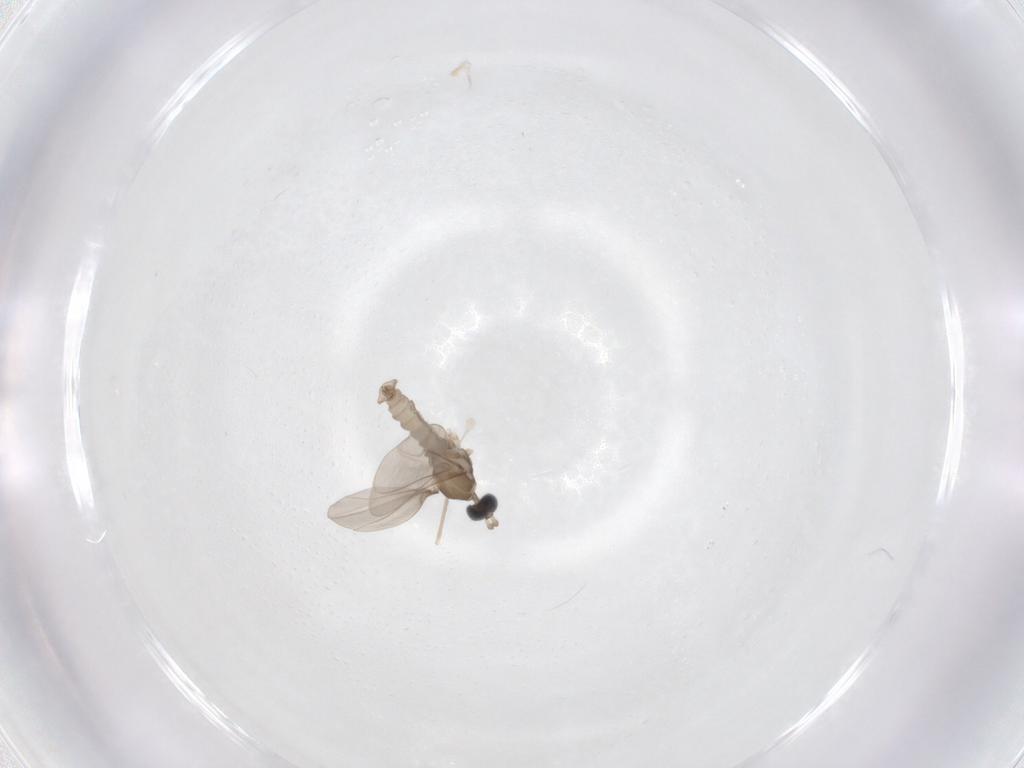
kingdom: Animalia
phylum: Arthropoda
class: Insecta
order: Diptera
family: Cecidomyiidae
